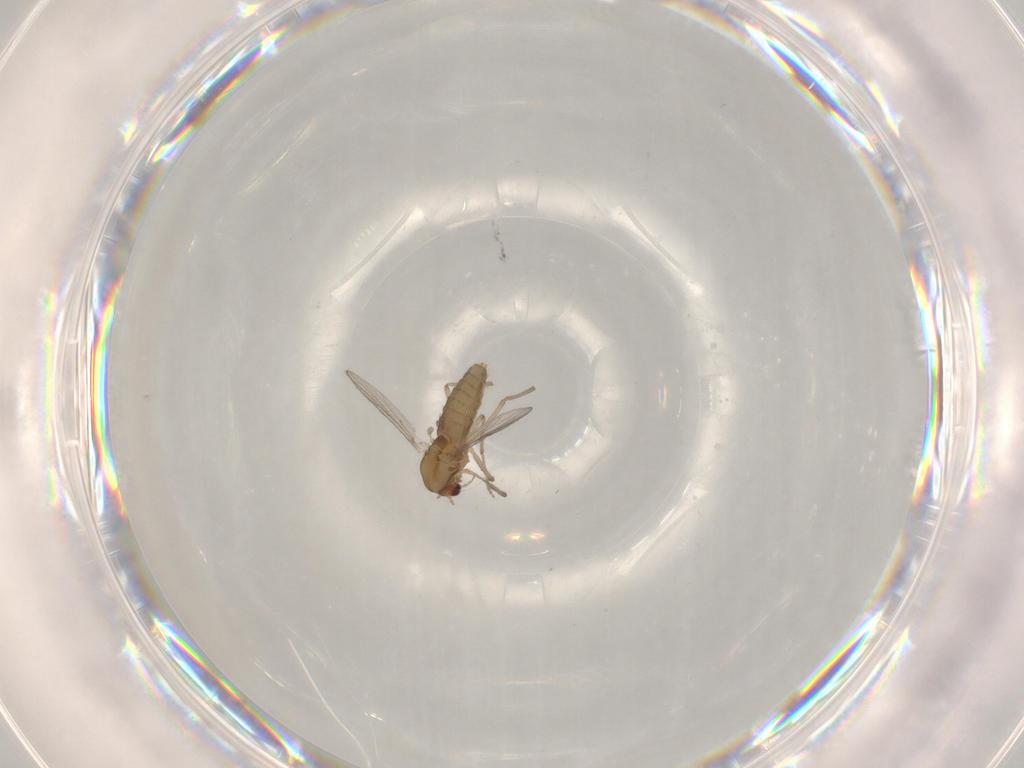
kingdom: Animalia
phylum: Arthropoda
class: Insecta
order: Diptera
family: Chironomidae
